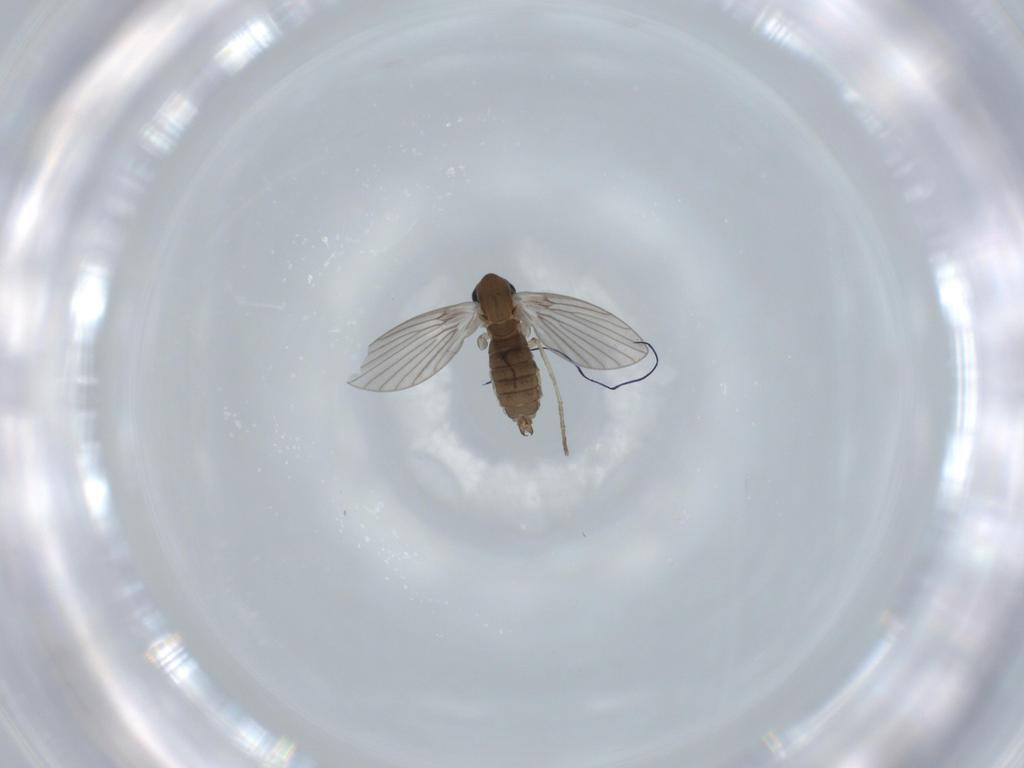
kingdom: Animalia
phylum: Arthropoda
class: Insecta
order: Diptera
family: Psychodidae
